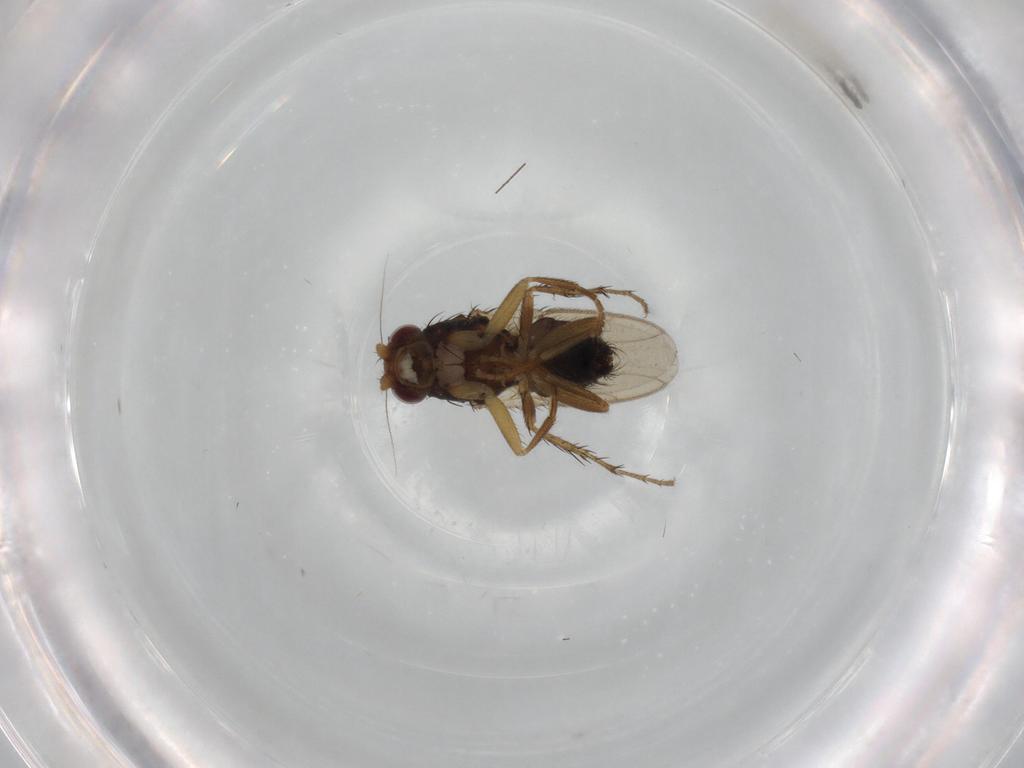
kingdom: Animalia
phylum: Arthropoda
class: Insecta
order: Diptera
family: Sphaeroceridae
